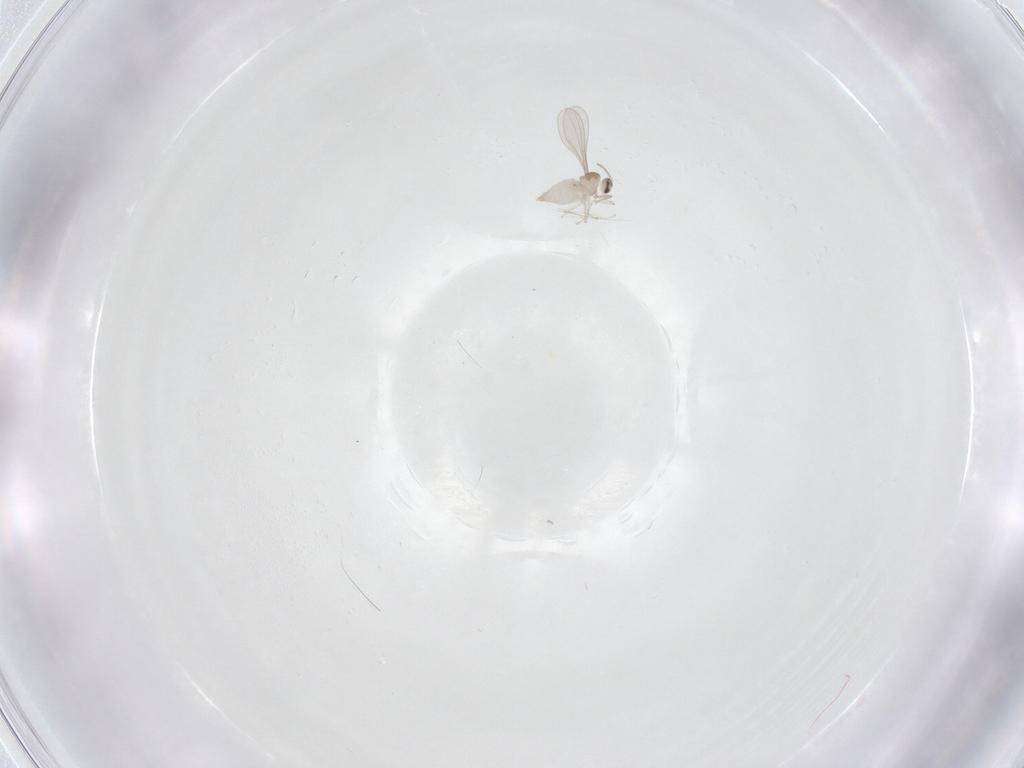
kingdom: Animalia
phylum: Arthropoda
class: Insecta
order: Diptera
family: Cecidomyiidae
